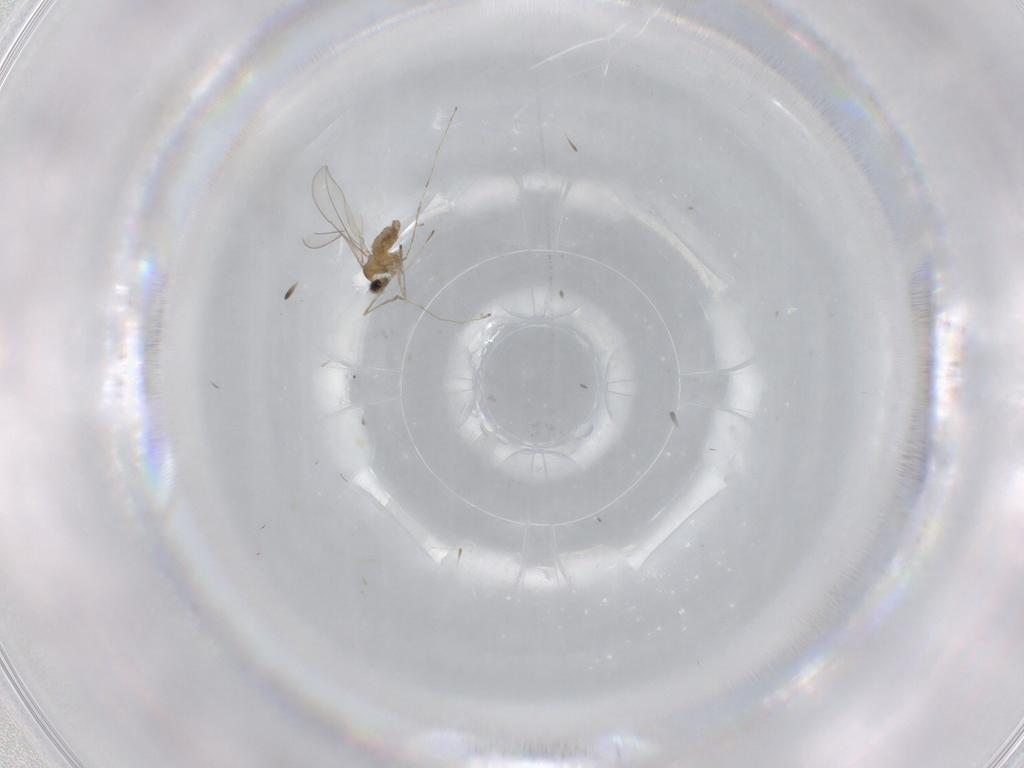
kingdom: Animalia
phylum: Arthropoda
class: Insecta
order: Diptera
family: Cecidomyiidae
